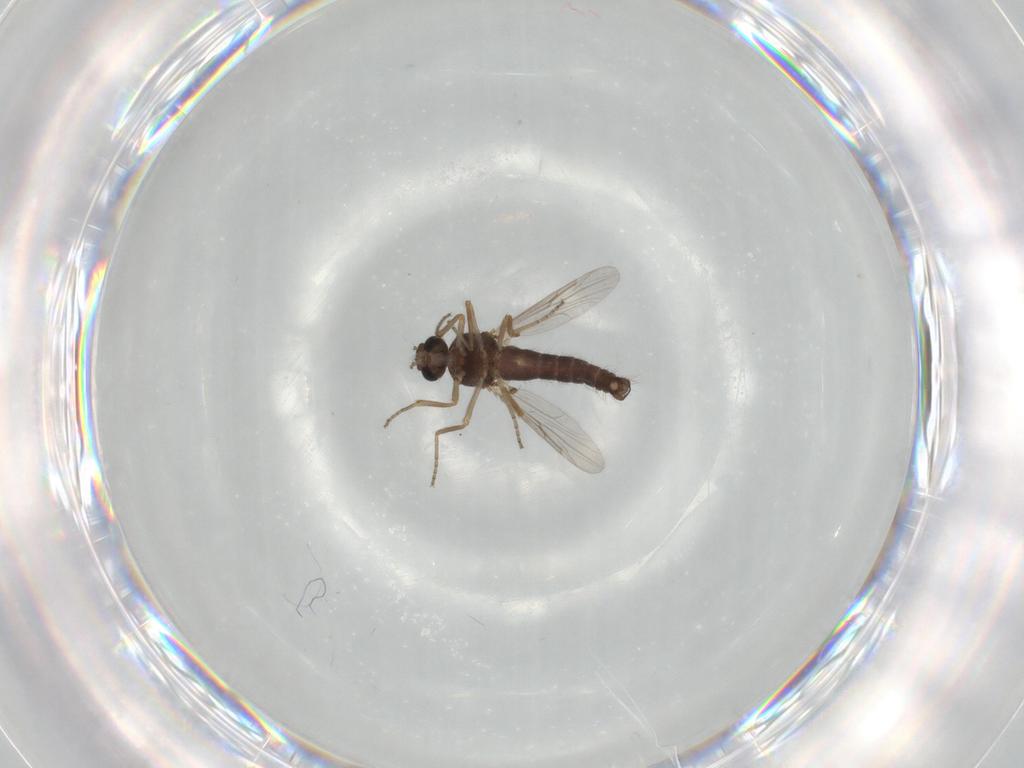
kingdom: Animalia
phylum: Arthropoda
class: Insecta
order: Diptera
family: Ceratopogonidae
